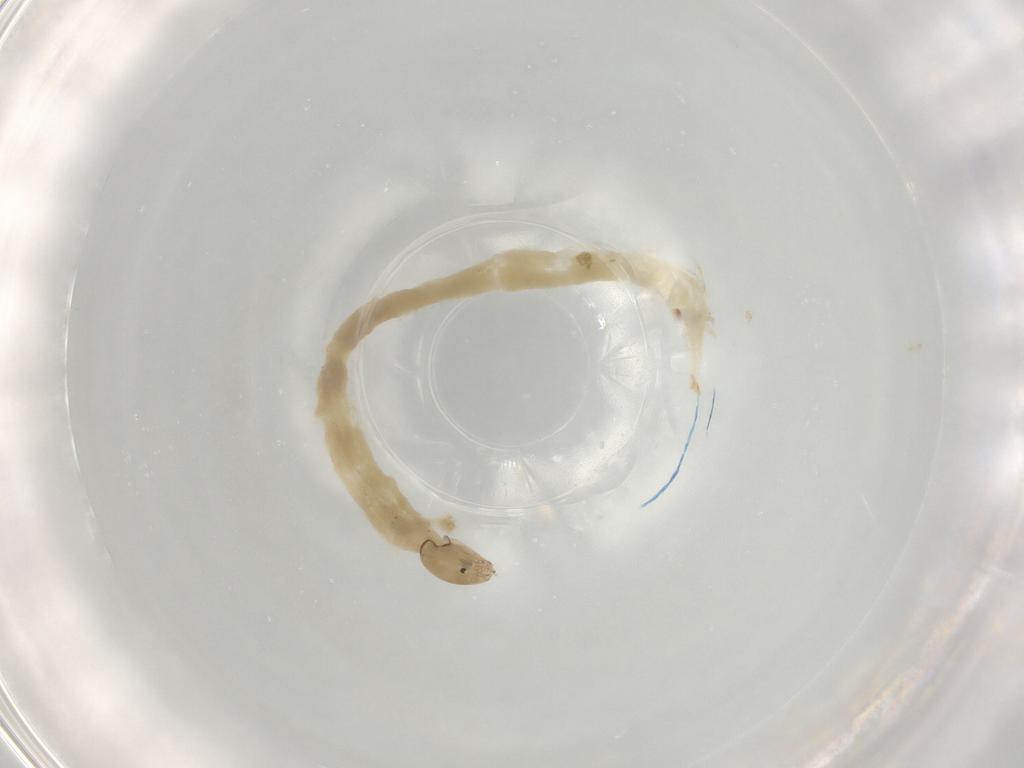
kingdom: Animalia
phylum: Arthropoda
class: Insecta
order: Diptera
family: Chironomidae
